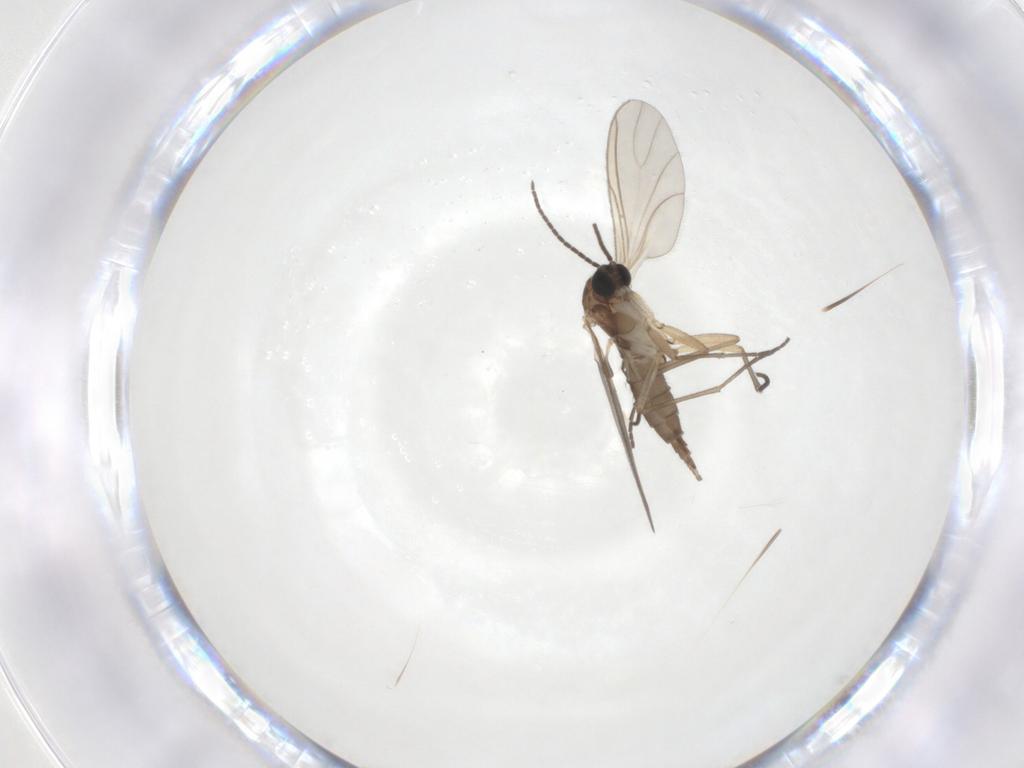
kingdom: Animalia
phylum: Arthropoda
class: Insecta
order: Diptera
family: Sciaridae
